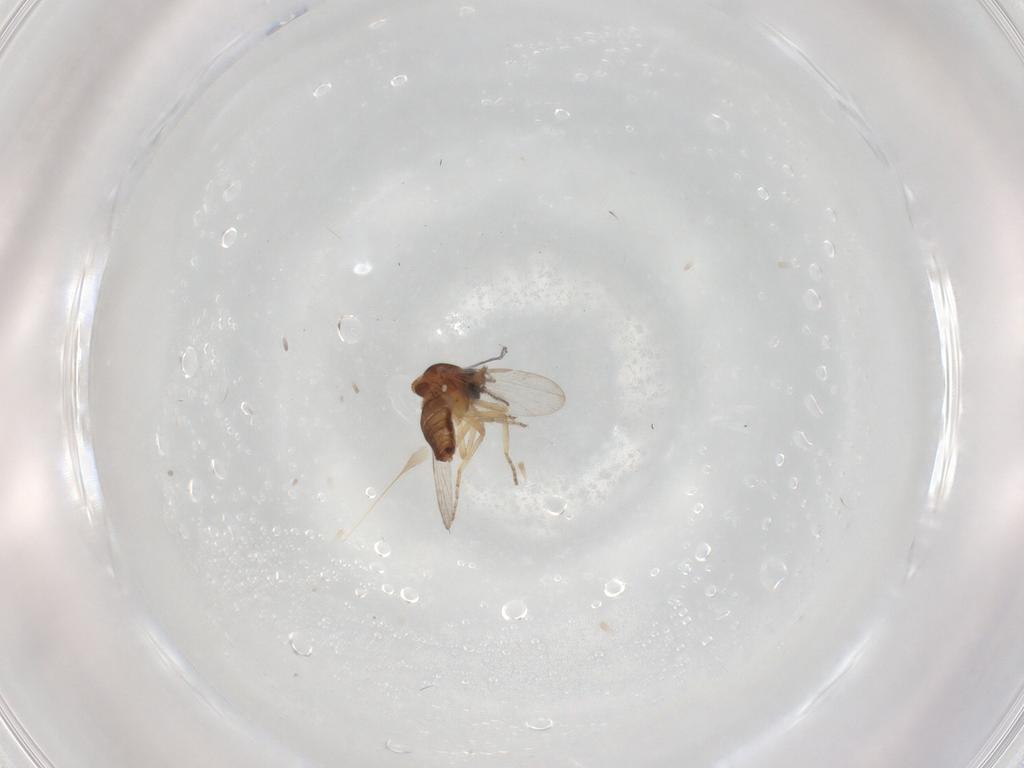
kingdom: Animalia
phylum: Arthropoda
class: Insecta
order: Diptera
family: Ceratopogonidae
